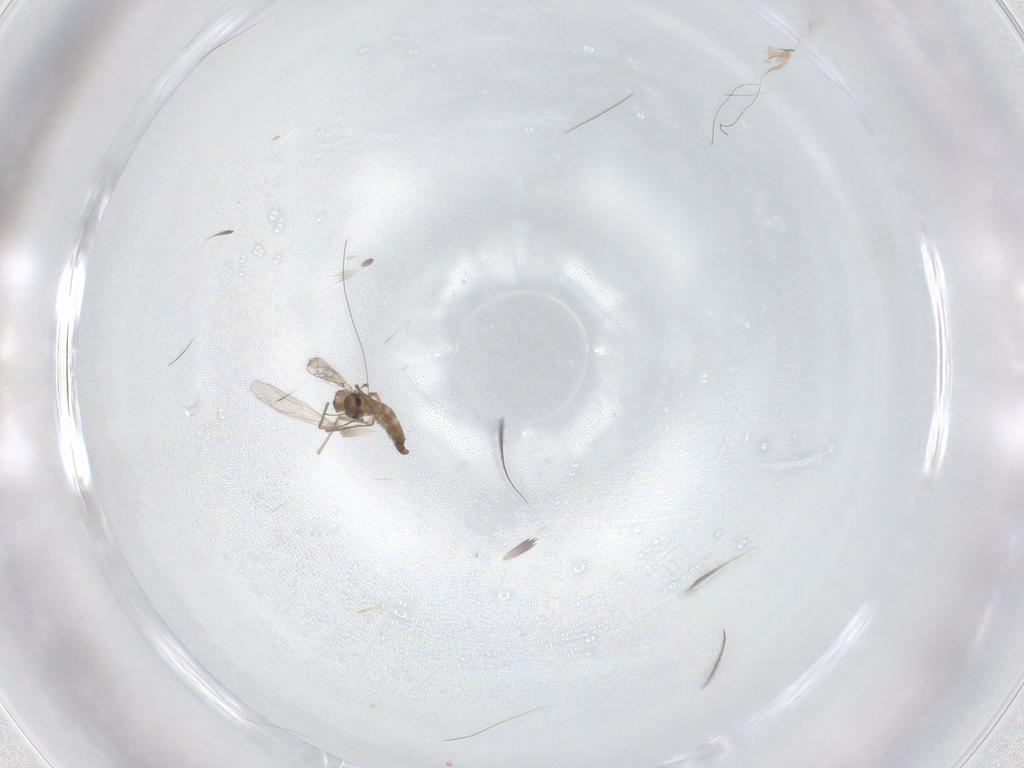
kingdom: Animalia
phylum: Arthropoda
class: Insecta
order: Diptera
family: Chironomidae
